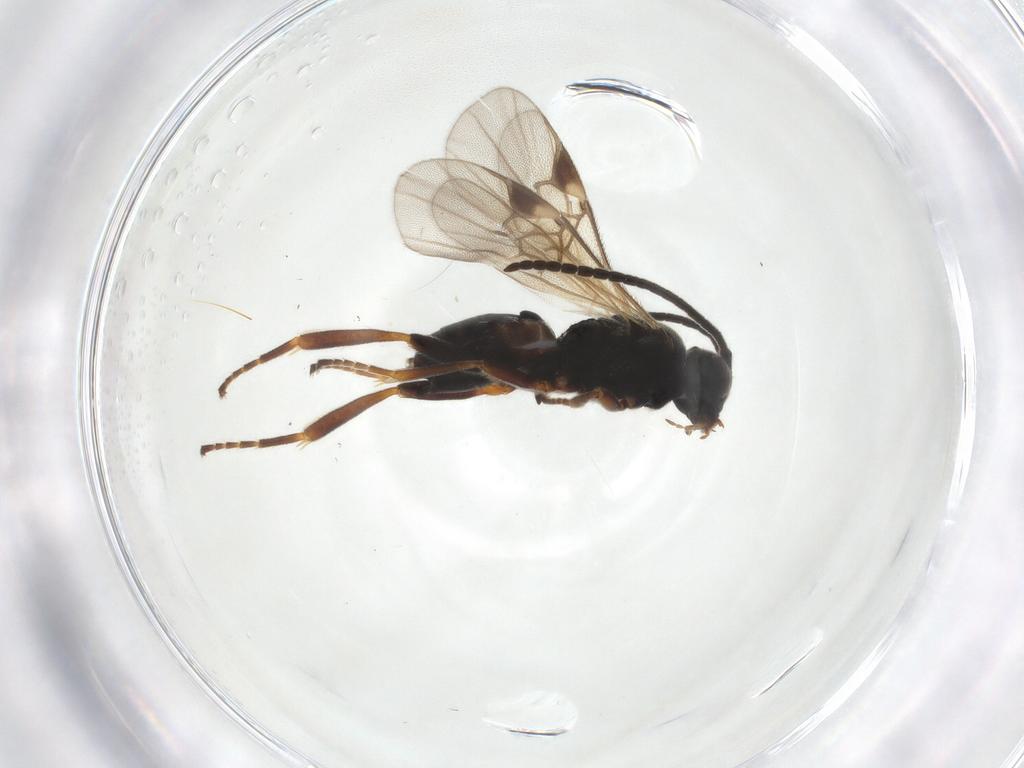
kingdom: Animalia
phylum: Arthropoda
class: Insecta
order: Hymenoptera
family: Braconidae
